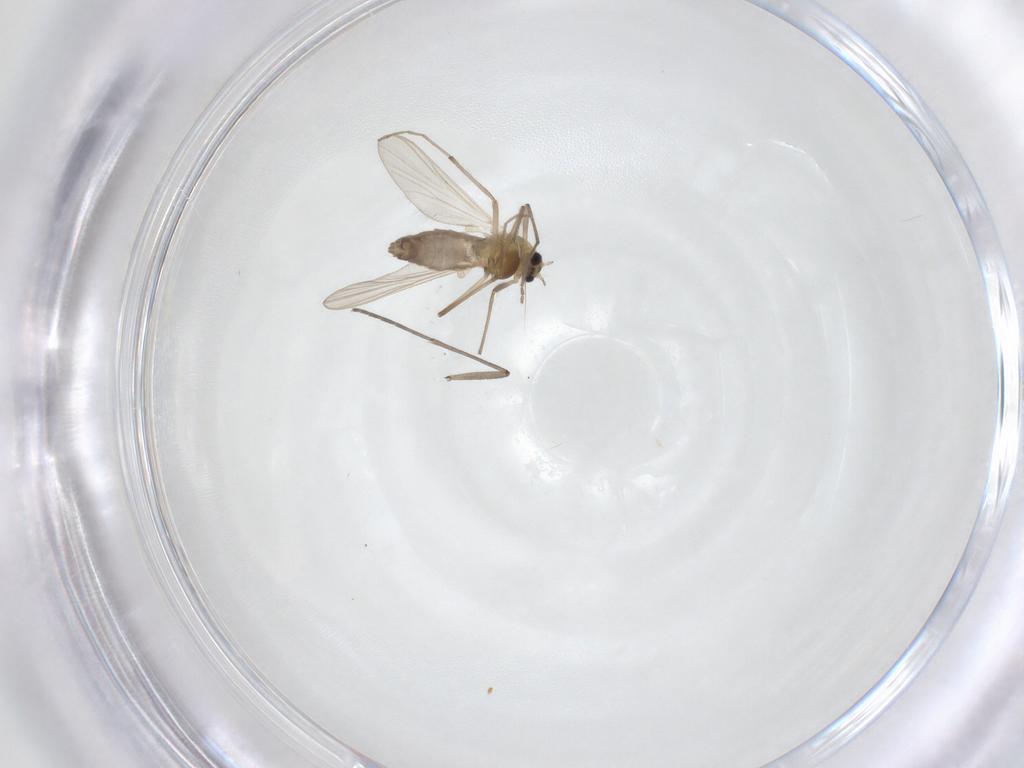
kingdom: Animalia
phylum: Arthropoda
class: Insecta
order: Diptera
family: Chironomidae
